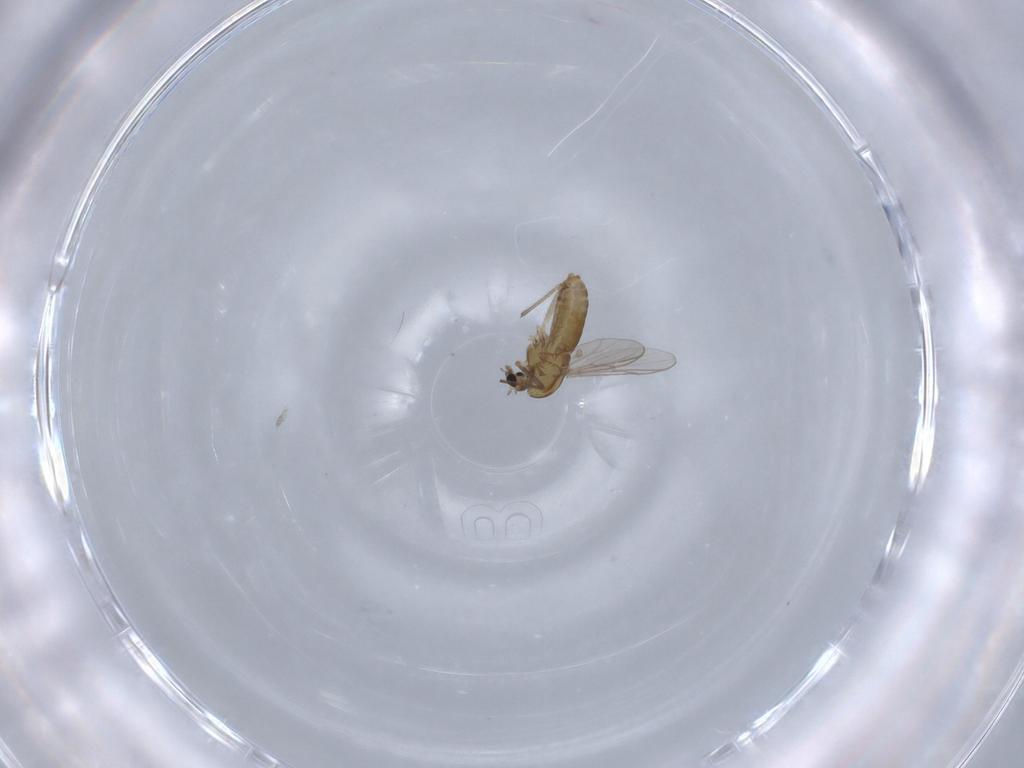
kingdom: Animalia
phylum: Arthropoda
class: Insecta
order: Diptera
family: Chironomidae
